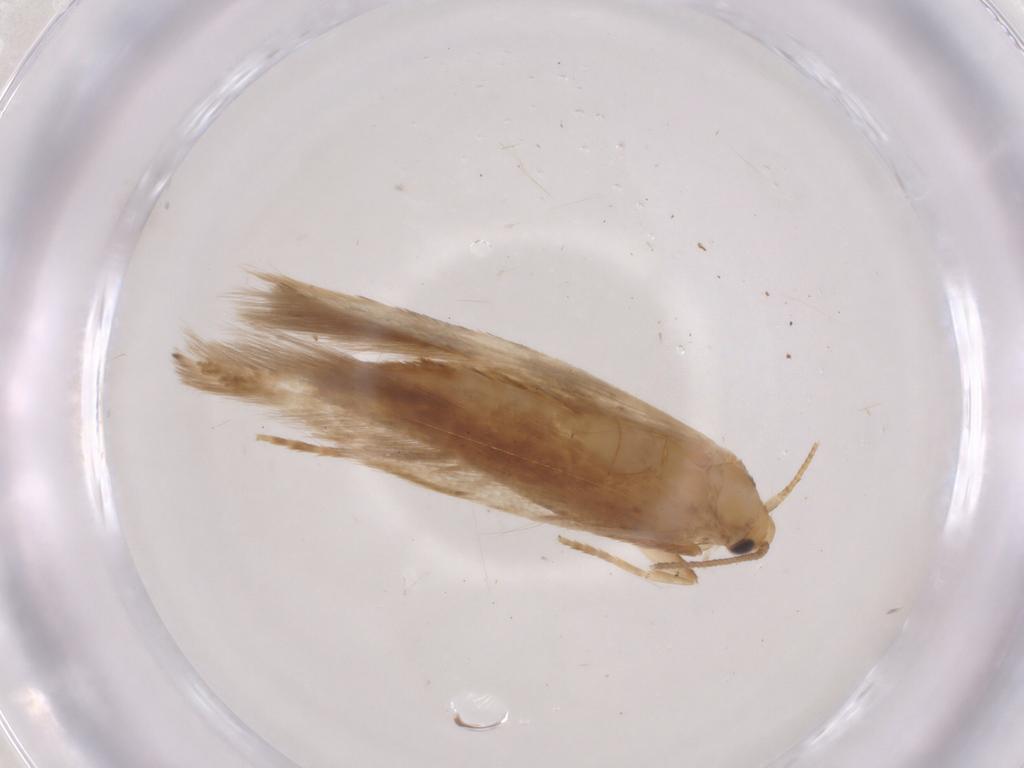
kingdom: Animalia
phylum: Arthropoda
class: Insecta
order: Lepidoptera
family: Tineidae
